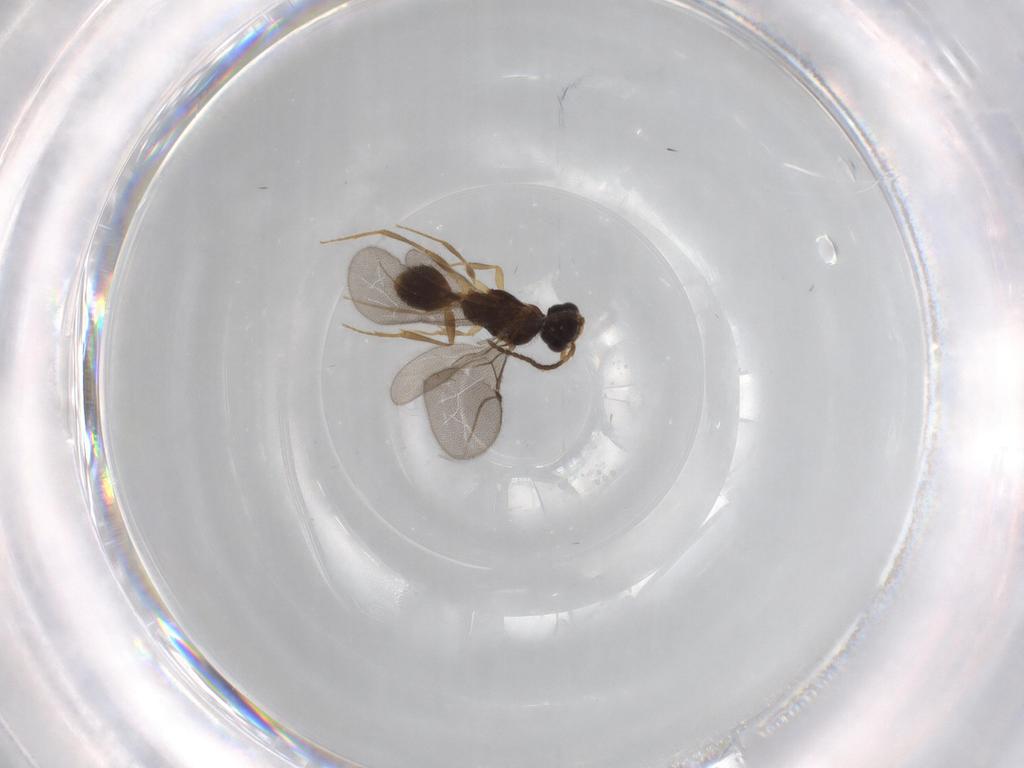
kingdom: Animalia
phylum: Arthropoda
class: Insecta
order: Hymenoptera
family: Bethylidae
